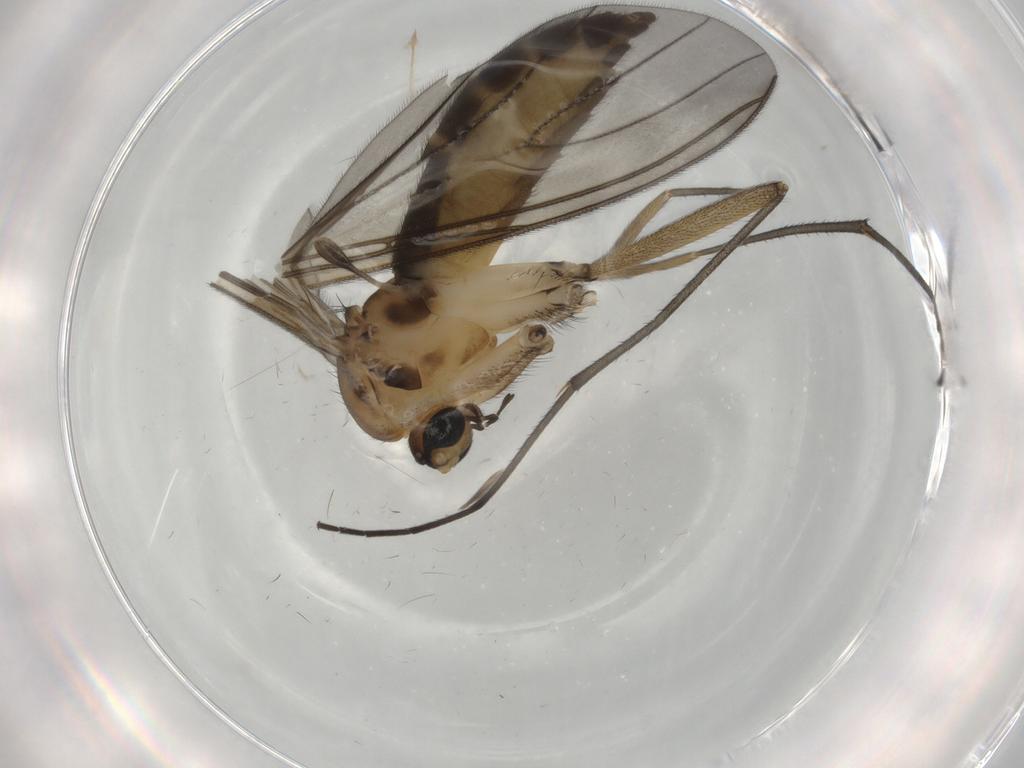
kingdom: Animalia
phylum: Arthropoda
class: Insecta
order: Diptera
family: Sciaridae
